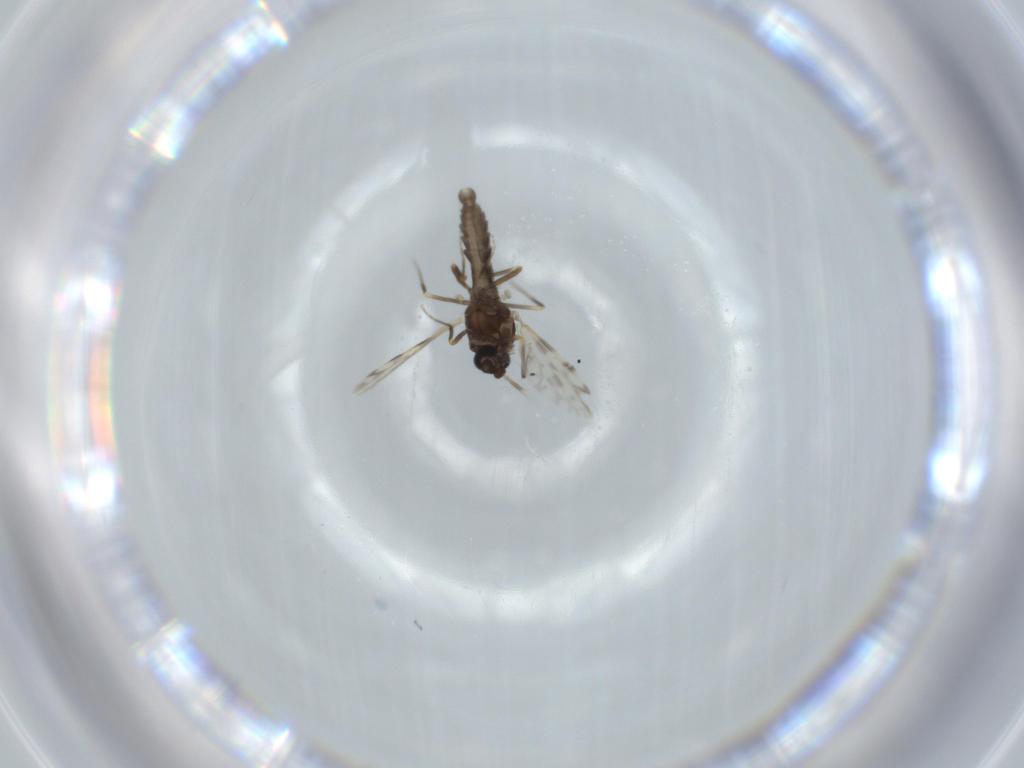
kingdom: Animalia
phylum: Arthropoda
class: Insecta
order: Diptera
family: Ceratopogonidae
